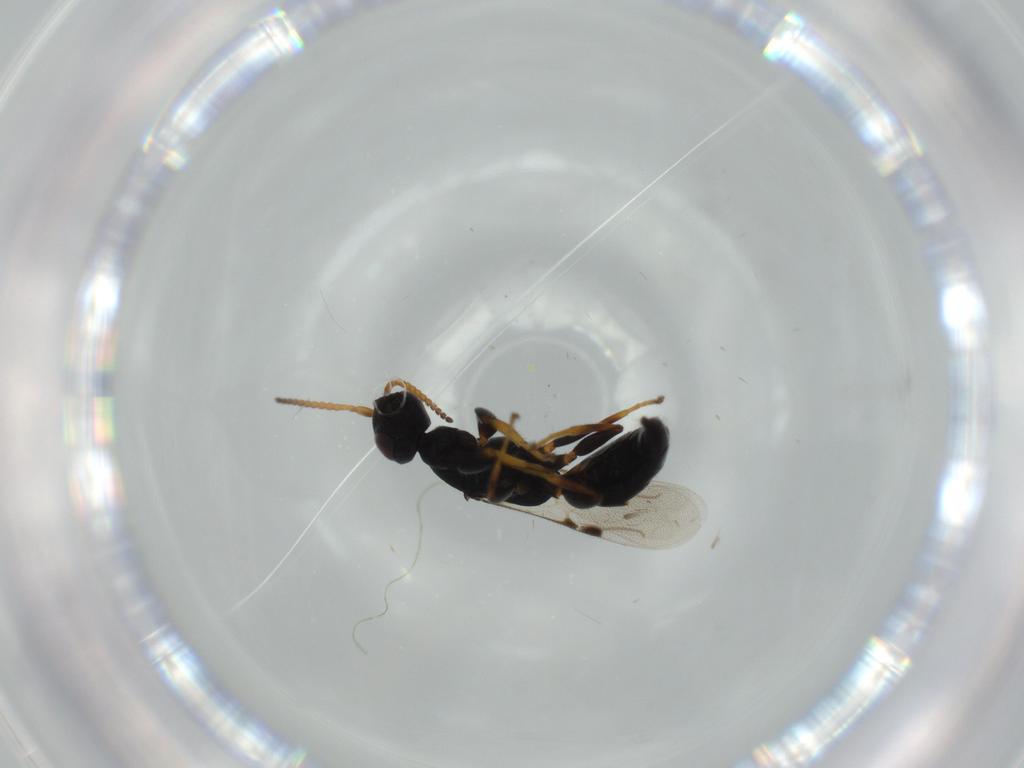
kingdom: Animalia
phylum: Arthropoda
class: Insecta
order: Hymenoptera
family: Bethylidae
